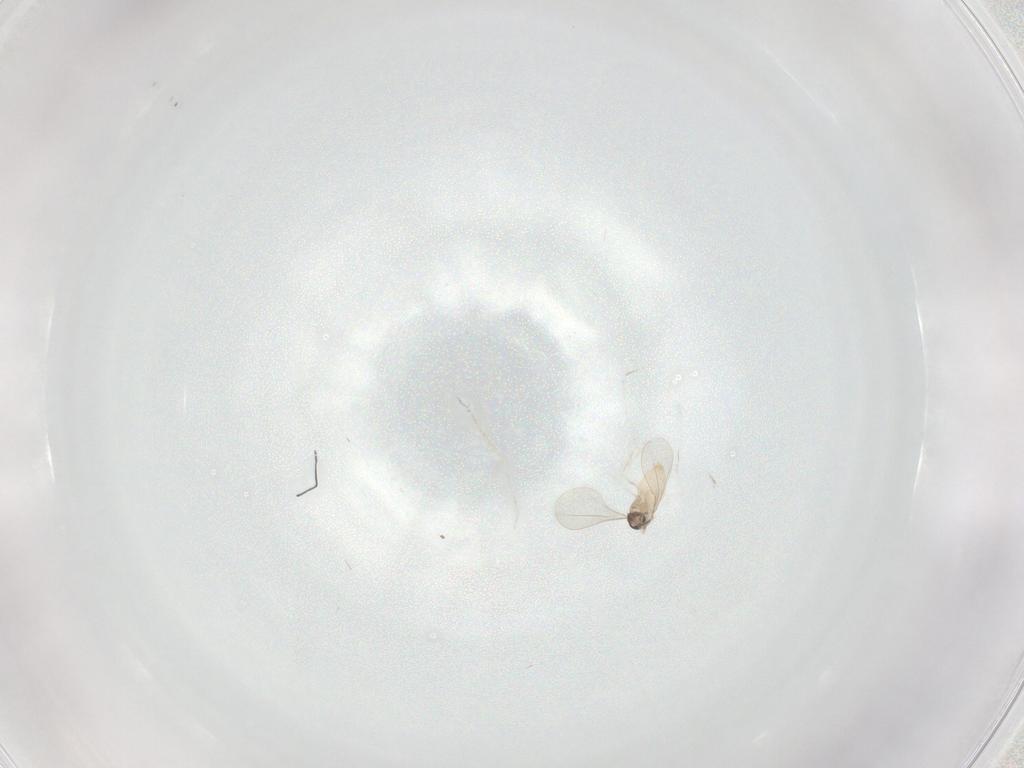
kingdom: Animalia
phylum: Arthropoda
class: Insecta
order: Diptera
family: Cecidomyiidae
